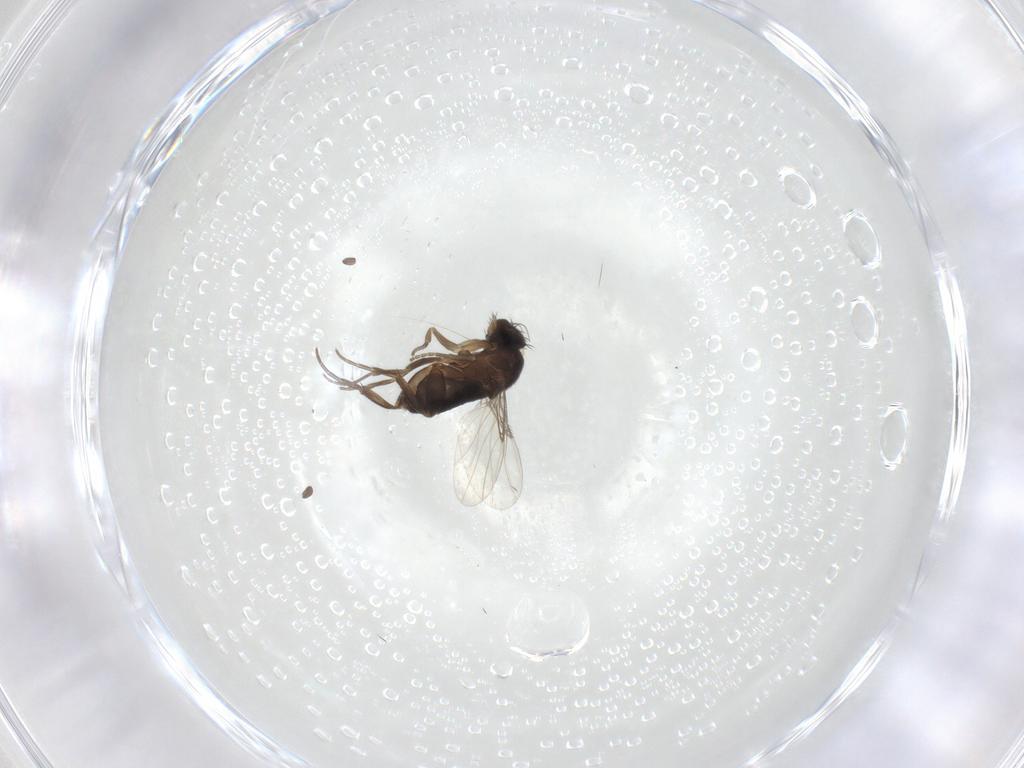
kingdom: Animalia
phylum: Arthropoda
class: Insecta
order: Diptera
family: Phoridae
